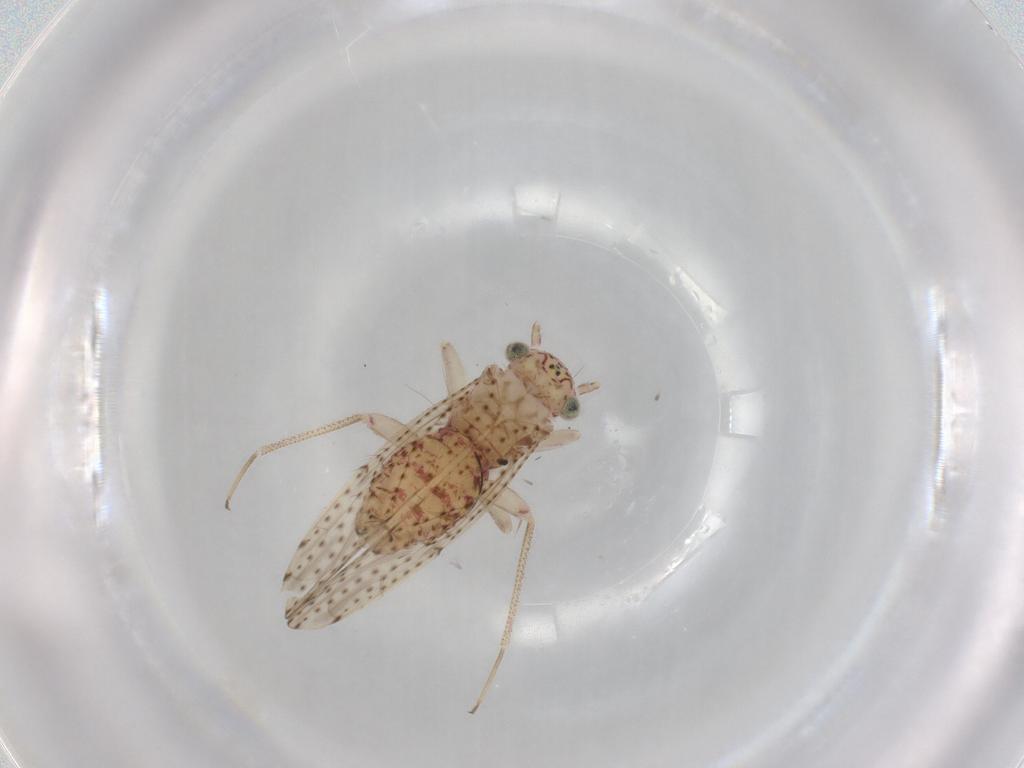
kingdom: Animalia
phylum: Arthropoda
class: Insecta
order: Psocodea
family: Philotarsidae
